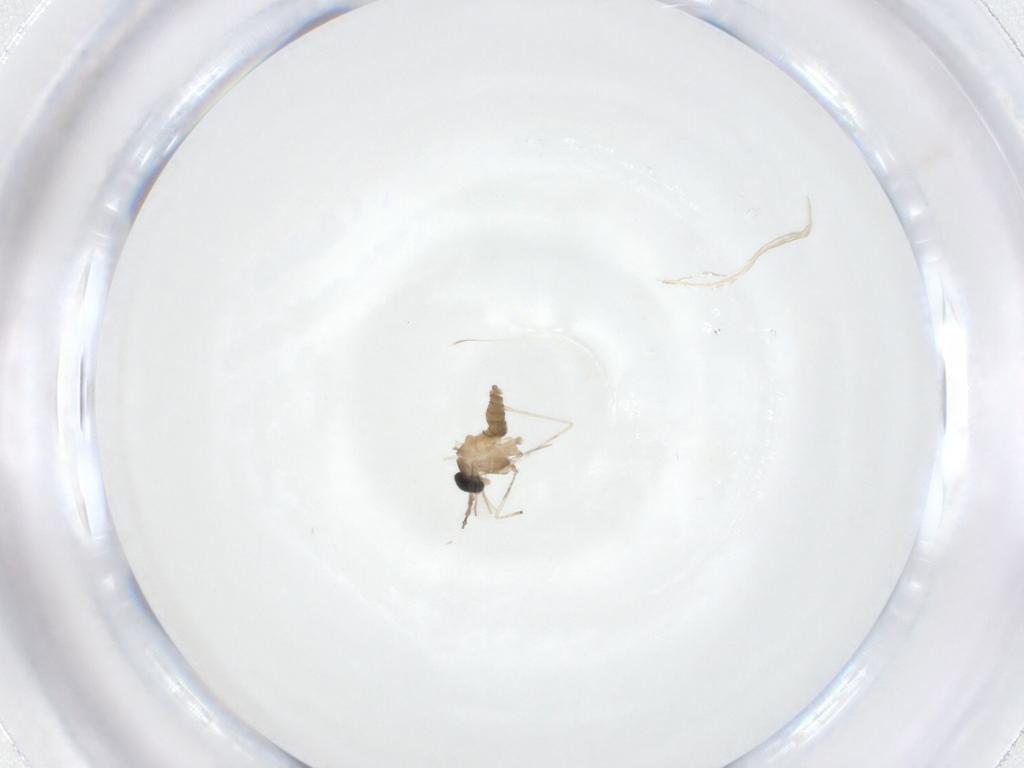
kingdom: Animalia
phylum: Arthropoda
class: Insecta
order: Diptera
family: Cecidomyiidae
